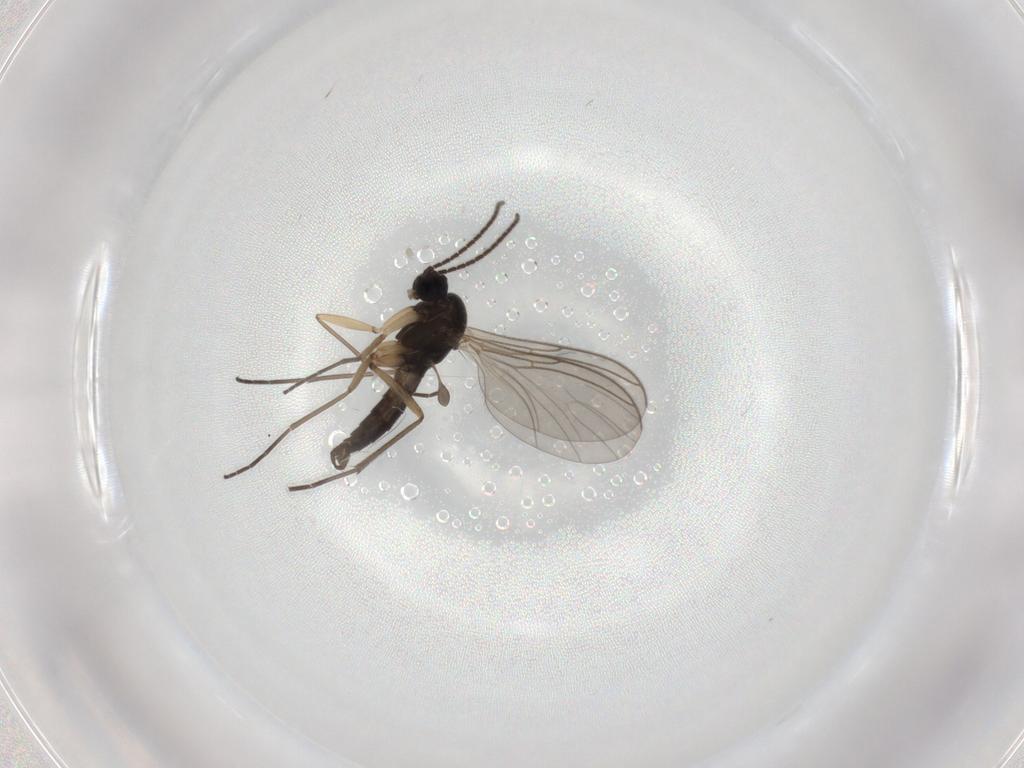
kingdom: Animalia
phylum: Arthropoda
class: Insecta
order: Diptera
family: Sciaridae
